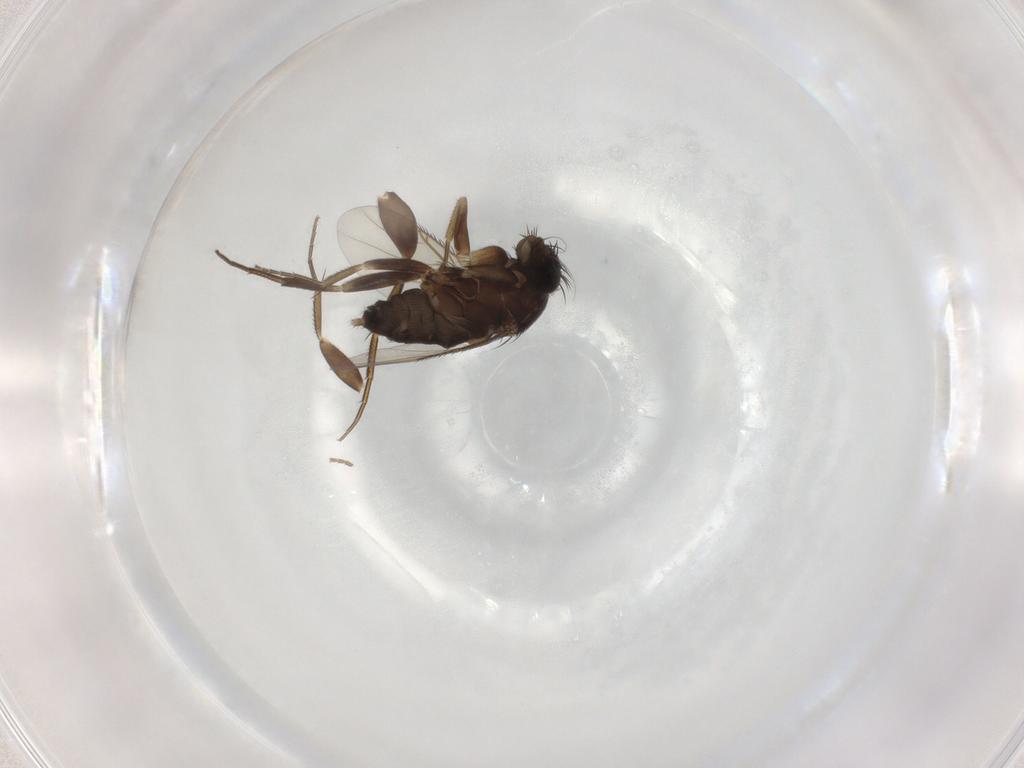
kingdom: Animalia
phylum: Arthropoda
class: Insecta
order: Diptera
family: Phoridae
